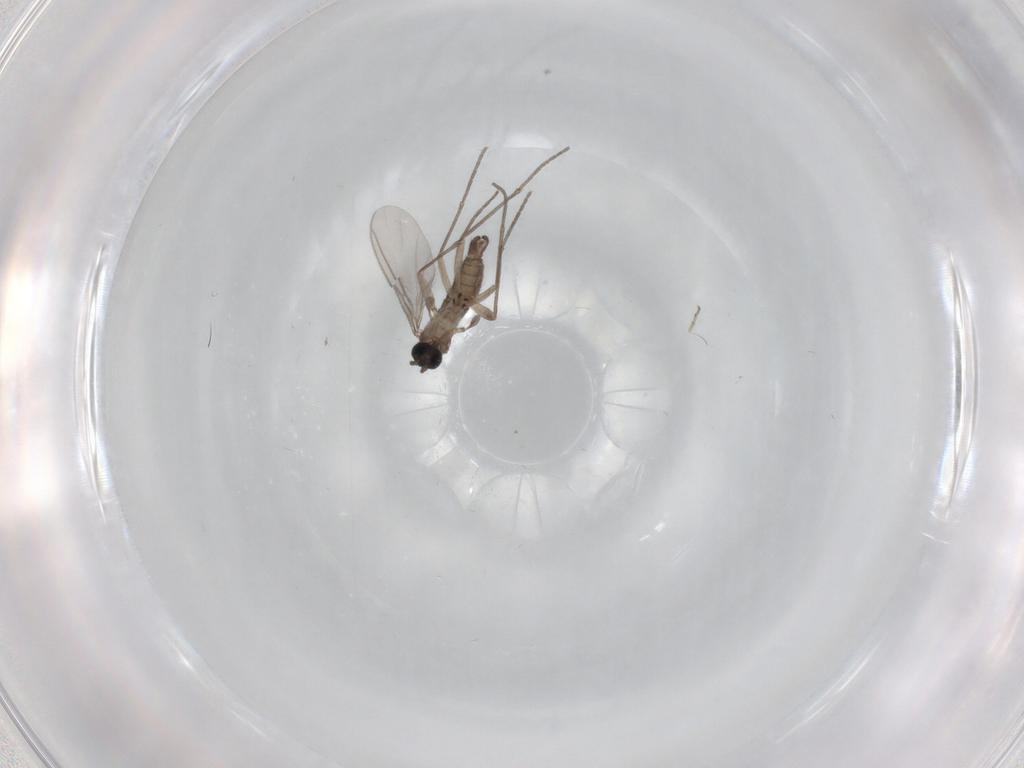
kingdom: Animalia
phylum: Arthropoda
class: Insecta
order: Diptera
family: Sciaridae
